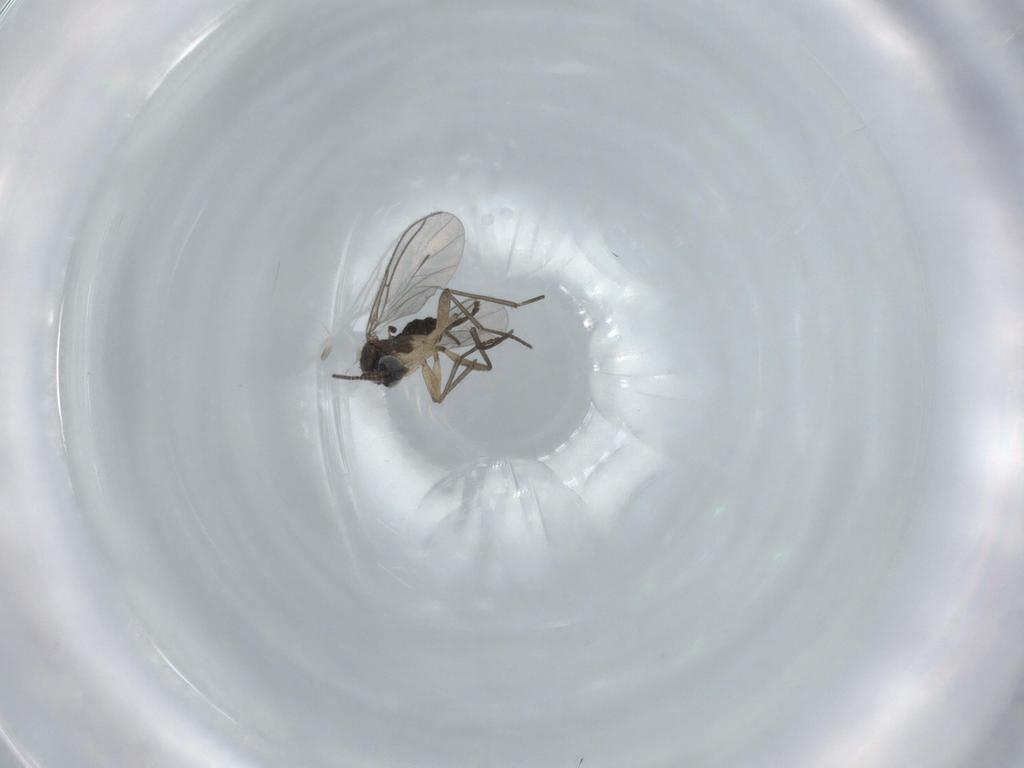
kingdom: Animalia
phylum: Arthropoda
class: Insecta
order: Diptera
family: Sciaridae
